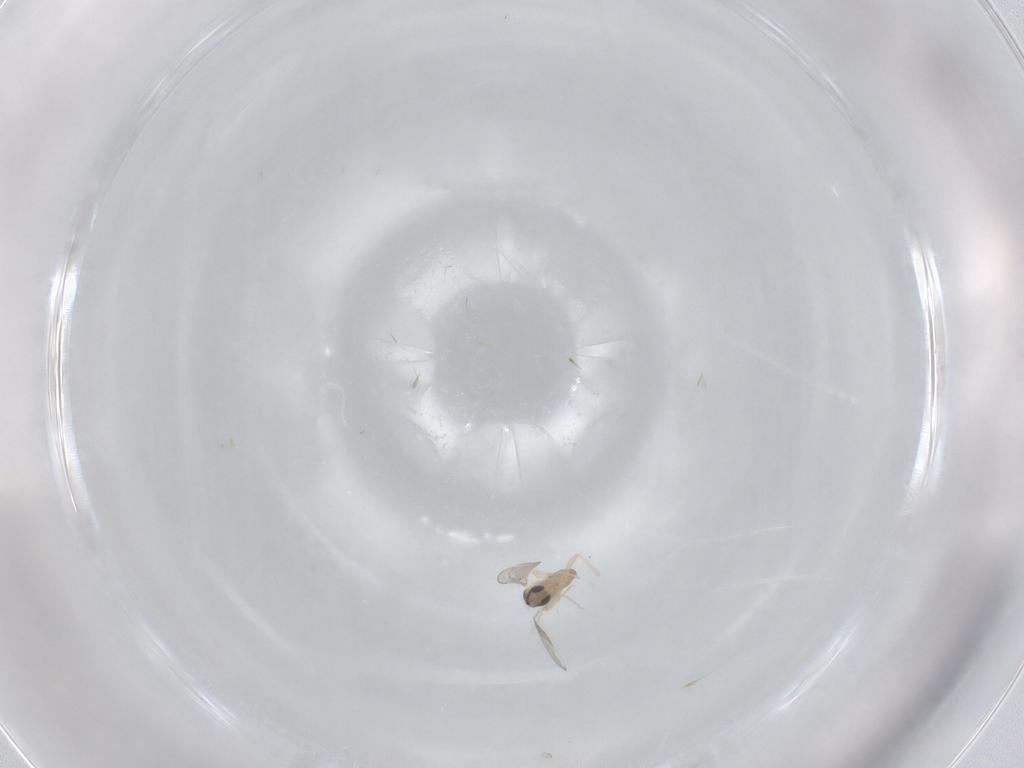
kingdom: Animalia
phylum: Arthropoda
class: Insecta
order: Diptera
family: Cecidomyiidae
